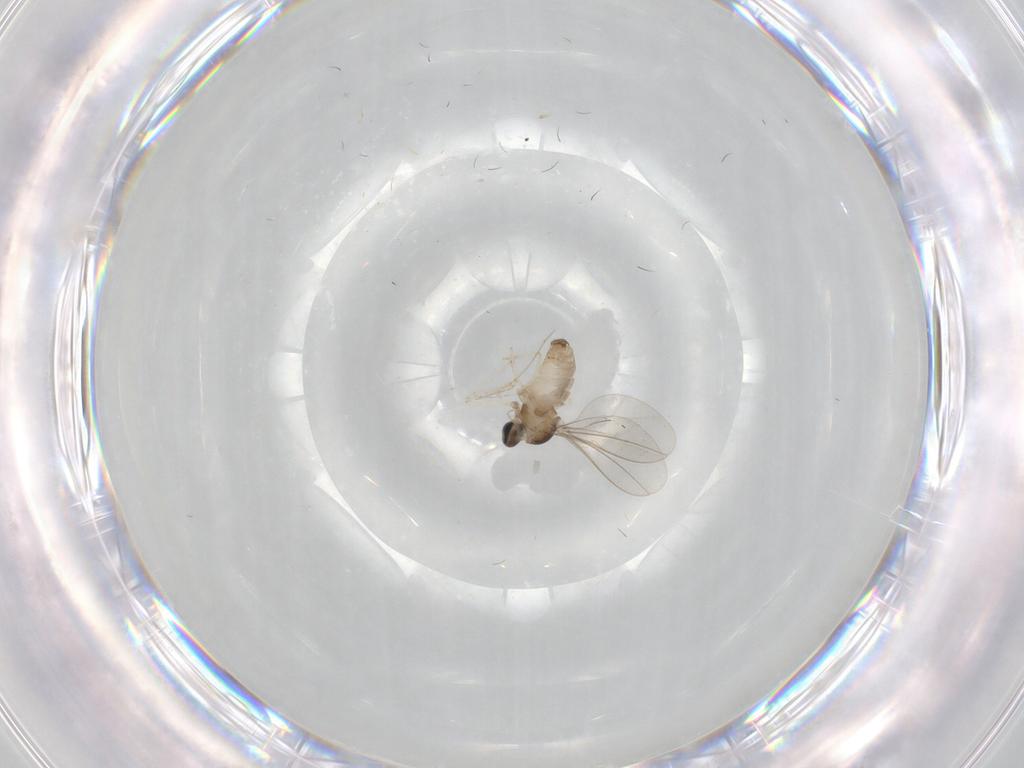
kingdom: Animalia
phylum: Arthropoda
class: Insecta
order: Diptera
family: Cecidomyiidae
